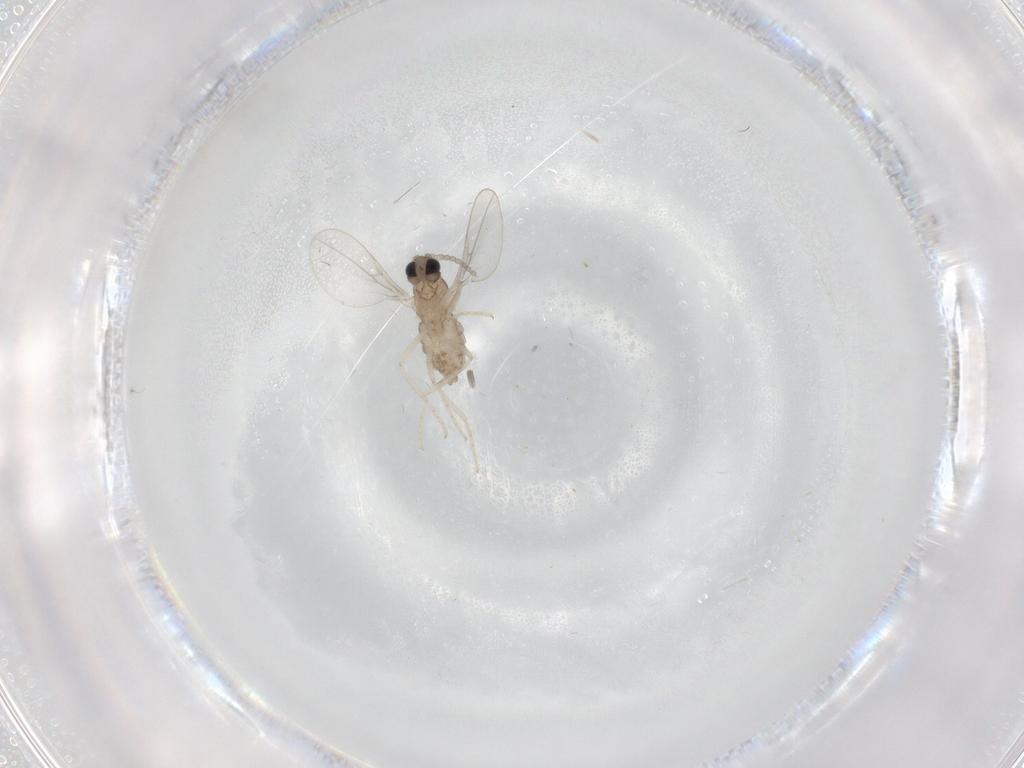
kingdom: Animalia
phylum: Arthropoda
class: Insecta
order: Diptera
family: Cecidomyiidae
